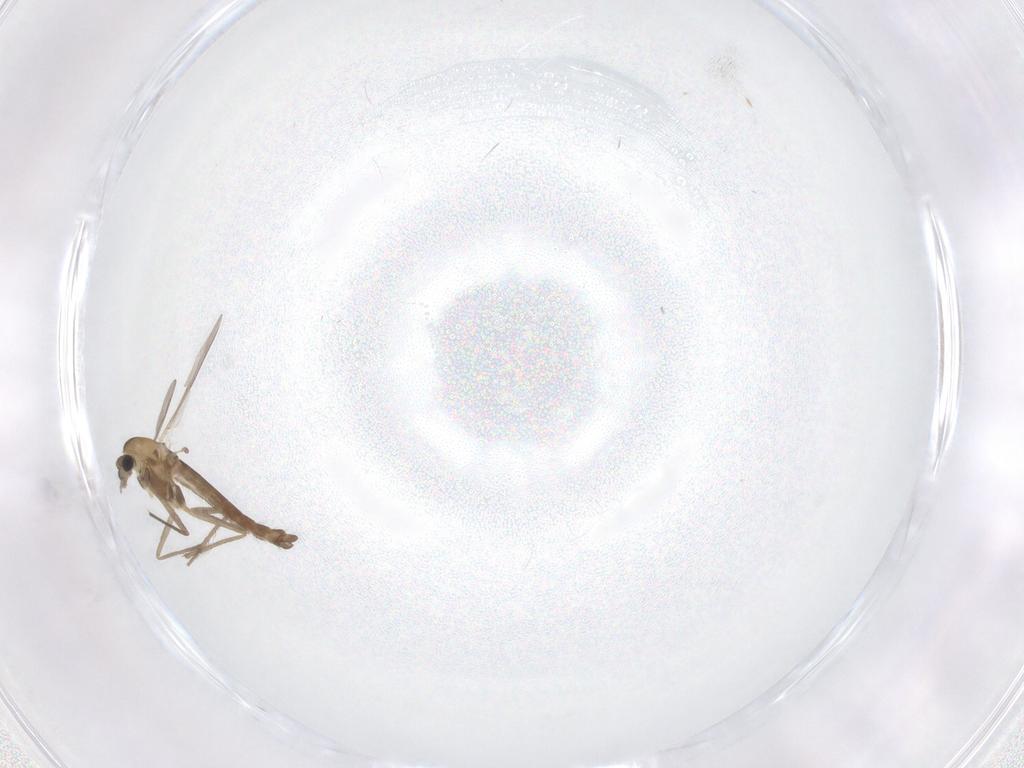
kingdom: Animalia
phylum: Arthropoda
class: Insecta
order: Diptera
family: Chironomidae
